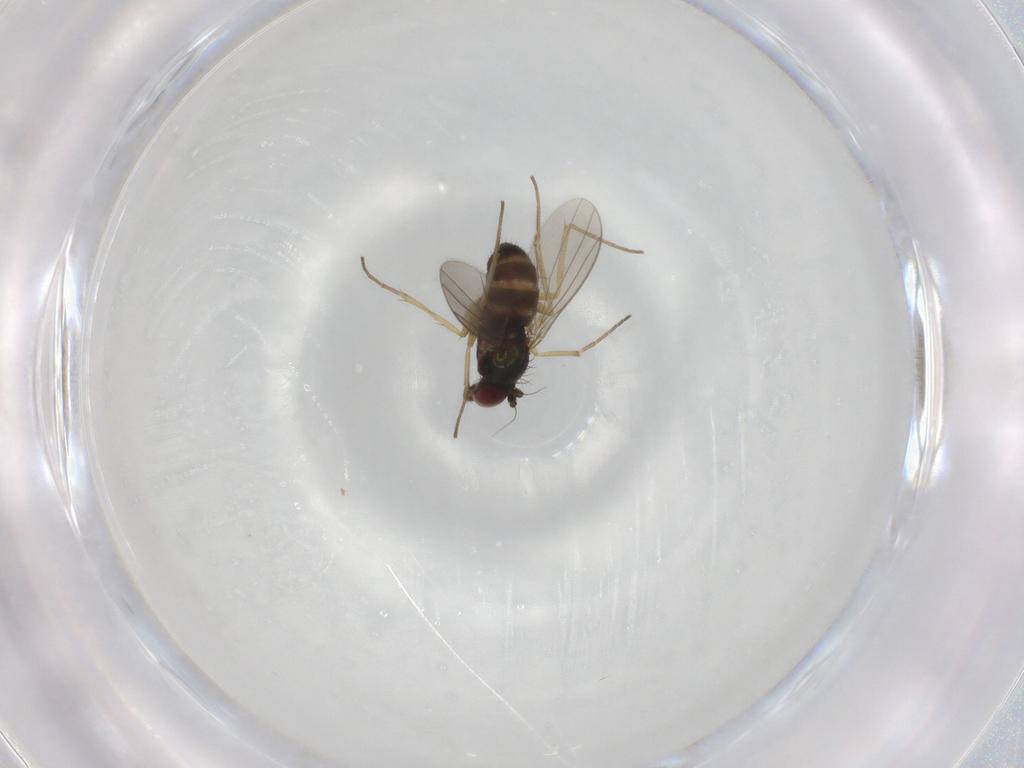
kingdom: Animalia
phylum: Arthropoda
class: Insecta
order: Diptera
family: Dolichopodidae
